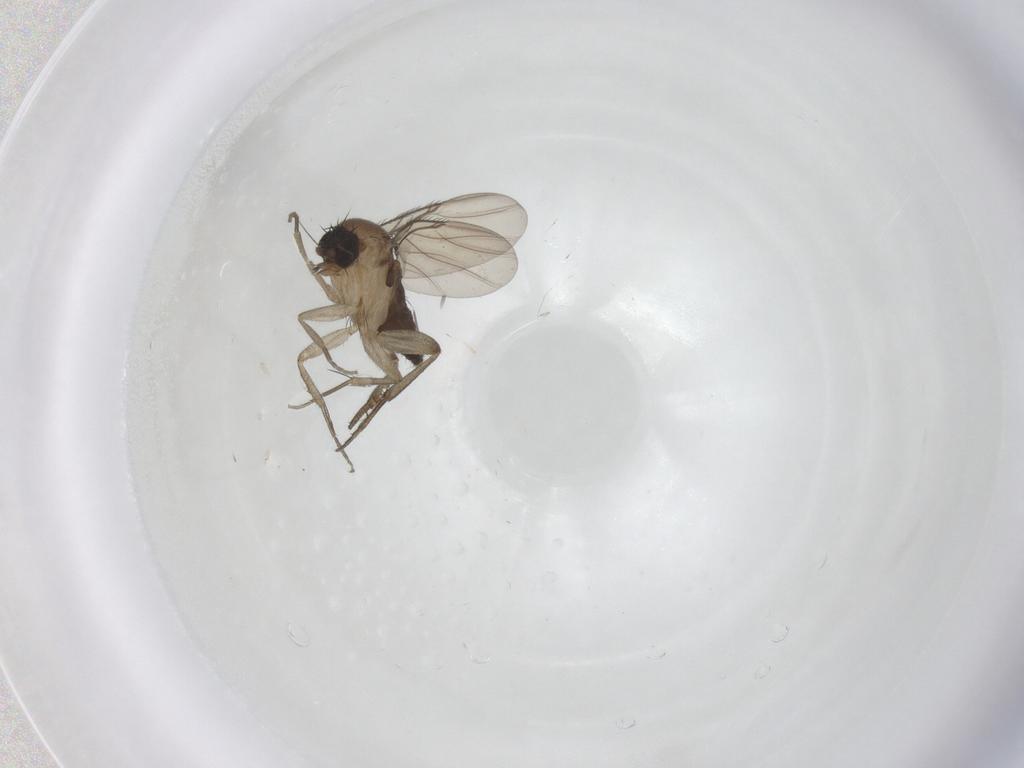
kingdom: Animalia
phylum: Arthropoda
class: Insecta
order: Diptera
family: Phoridae
